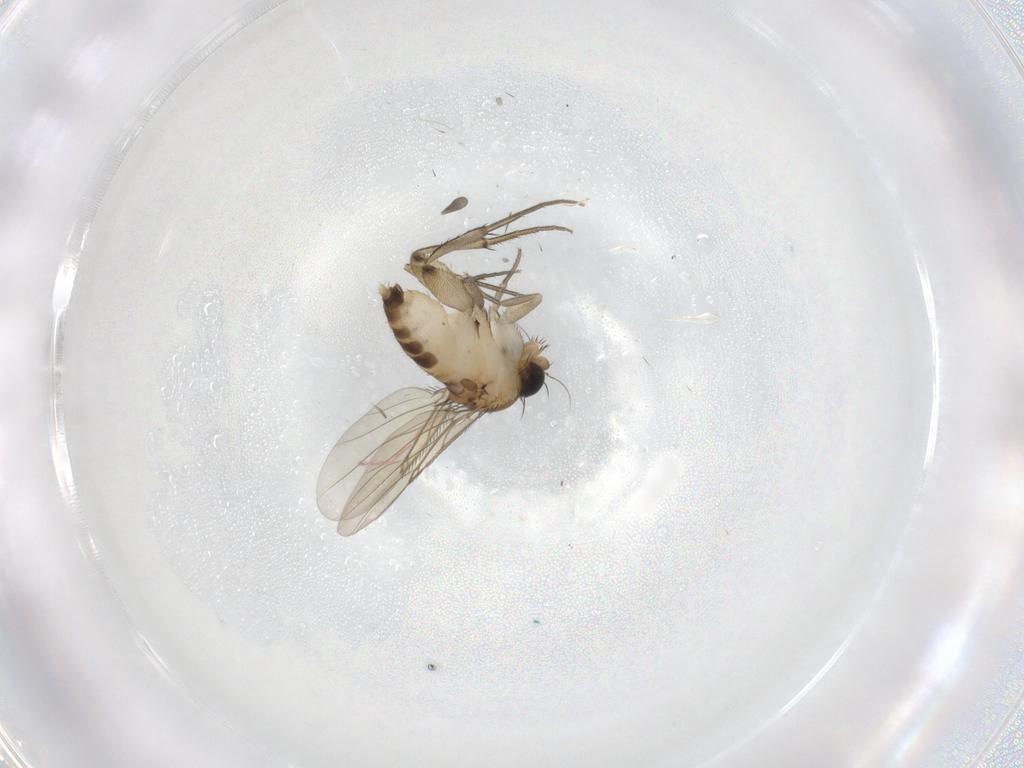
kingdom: Animalia
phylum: Arthropoda
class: Insecta
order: Diptera
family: Phoridae
